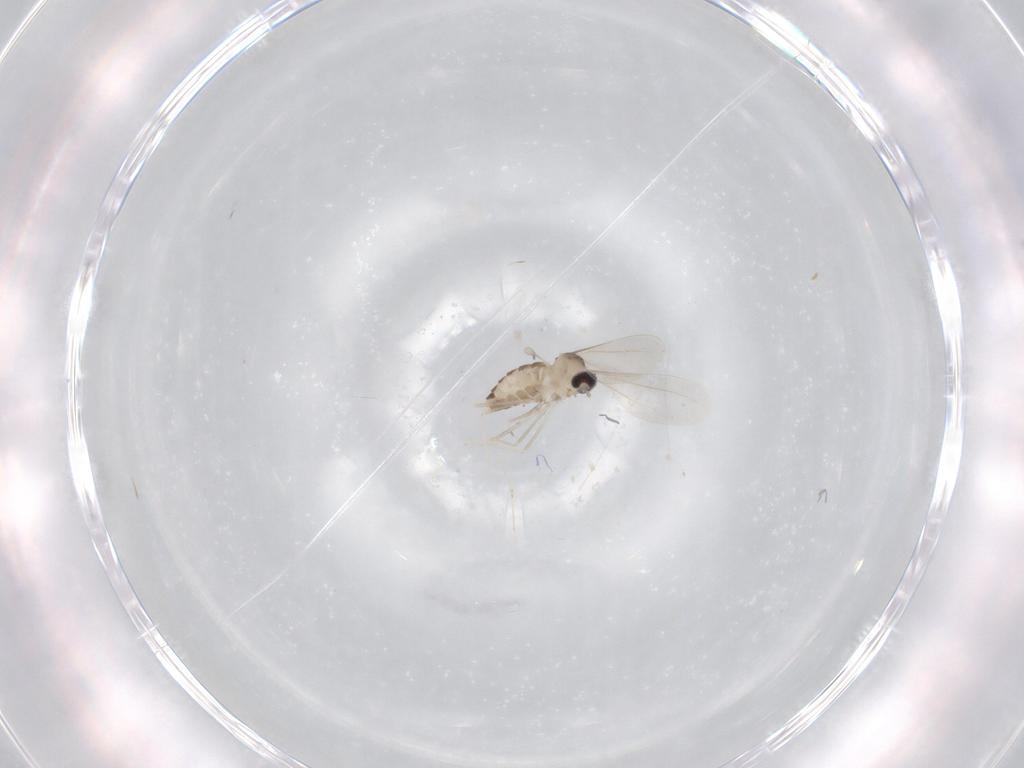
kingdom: Animalia
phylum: Arthropoda
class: Insecta
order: Diptera
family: Cecidomyiidae
